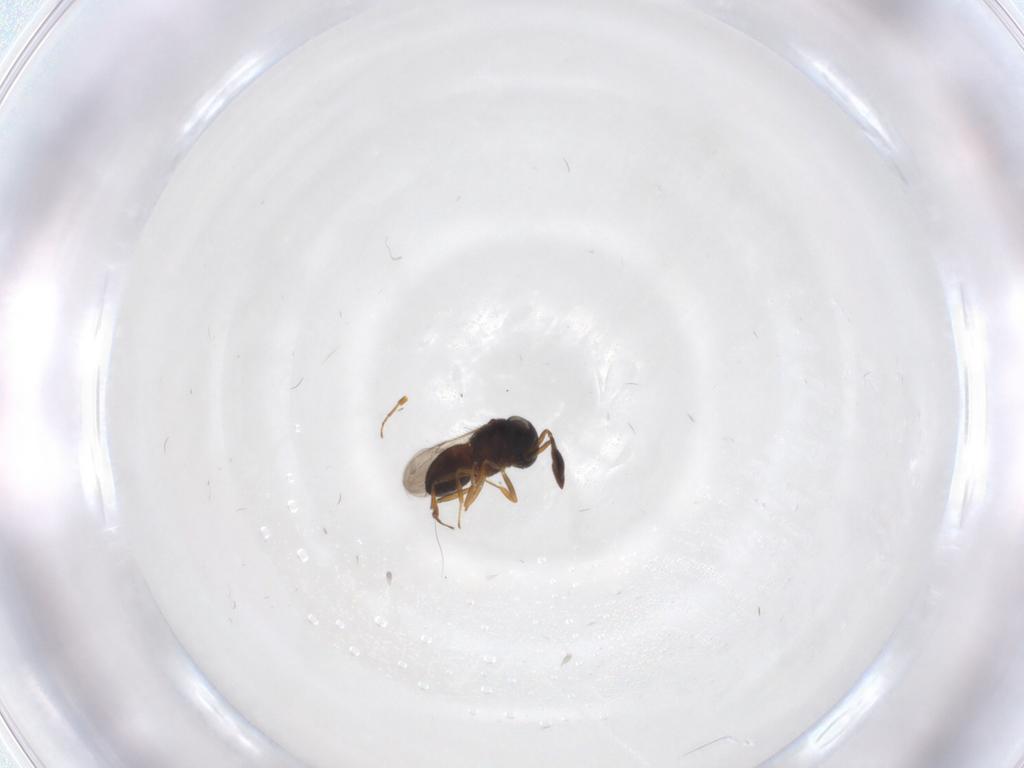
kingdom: Animalia
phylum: Arthropoda
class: Insecta
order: Hymenoptera
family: Scelionidae
